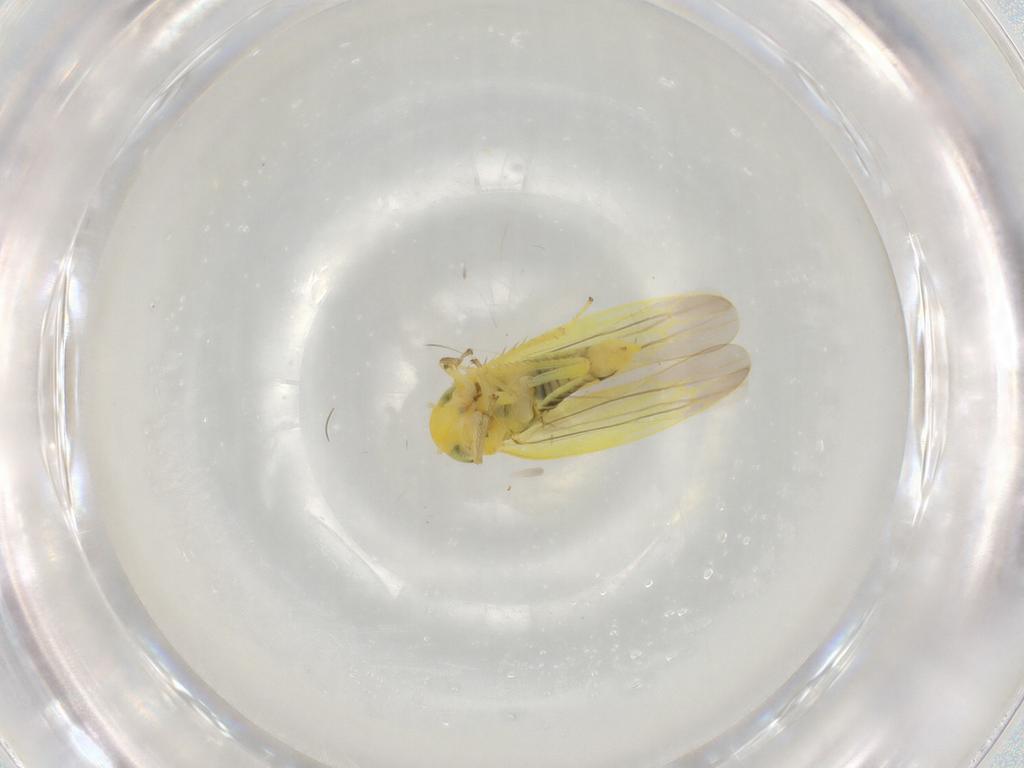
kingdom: Animalia
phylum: Arthropoda
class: Insecta
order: Hemiptera
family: Cicadellidae
